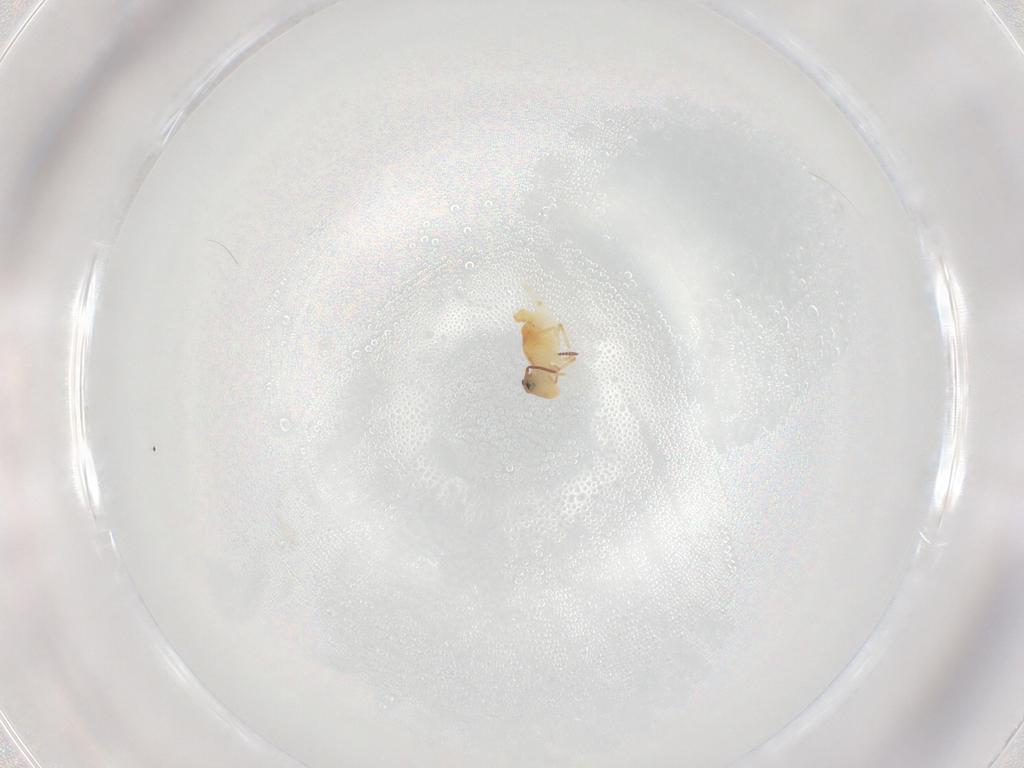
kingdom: Animalia
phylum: Arthropoda
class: Collembola
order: Symphypleona
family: Bourletiellidae
